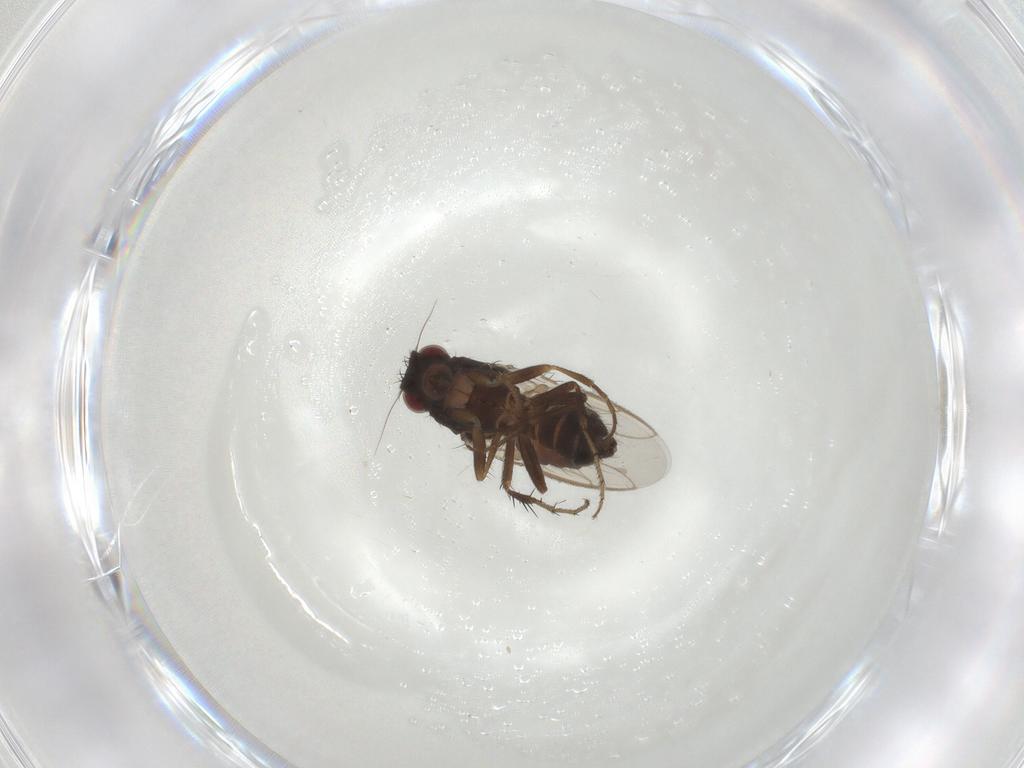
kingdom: Animalia
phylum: Arthropoda
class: Insecta
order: Diptera
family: Sphaeroceridae
